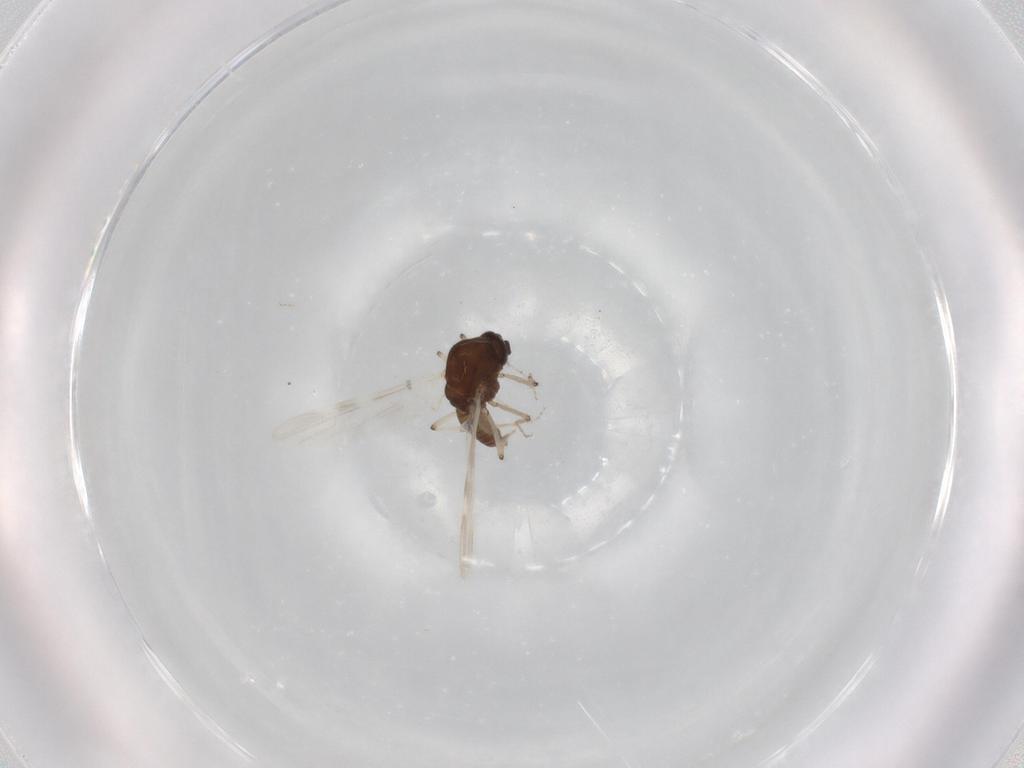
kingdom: Animalia
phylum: Arthropoda
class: Insecta
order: Diptera
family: Ceratopogonidae
